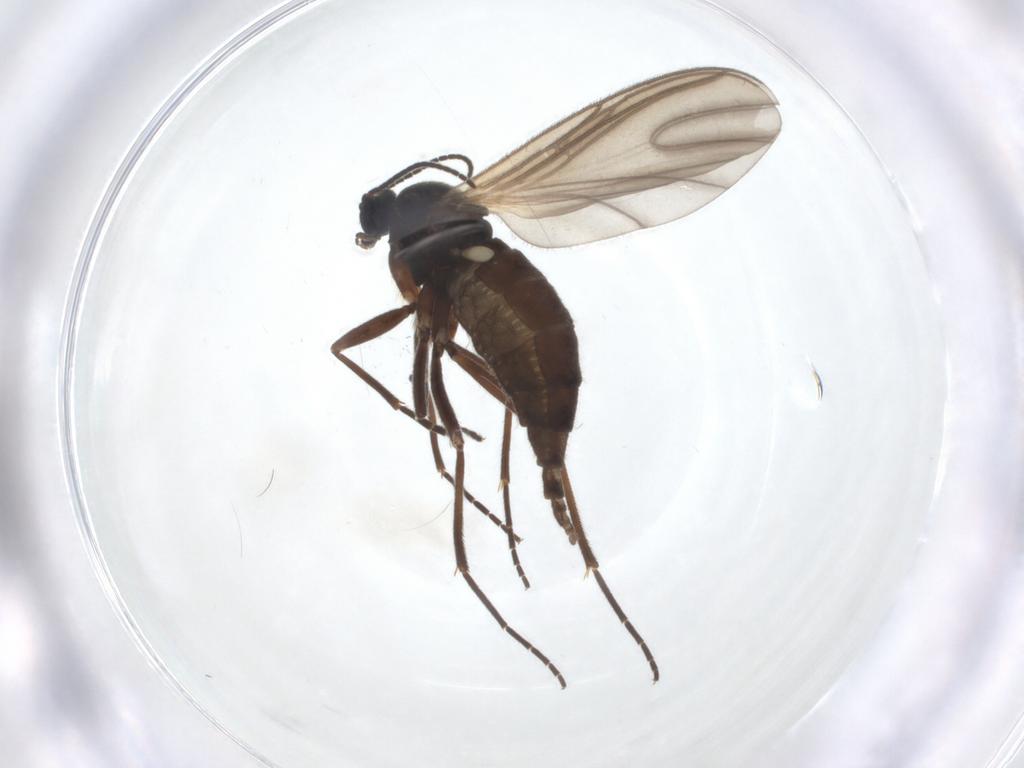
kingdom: Animalia
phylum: Arthropoda
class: Insecta
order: Diptera
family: Sciaridae
